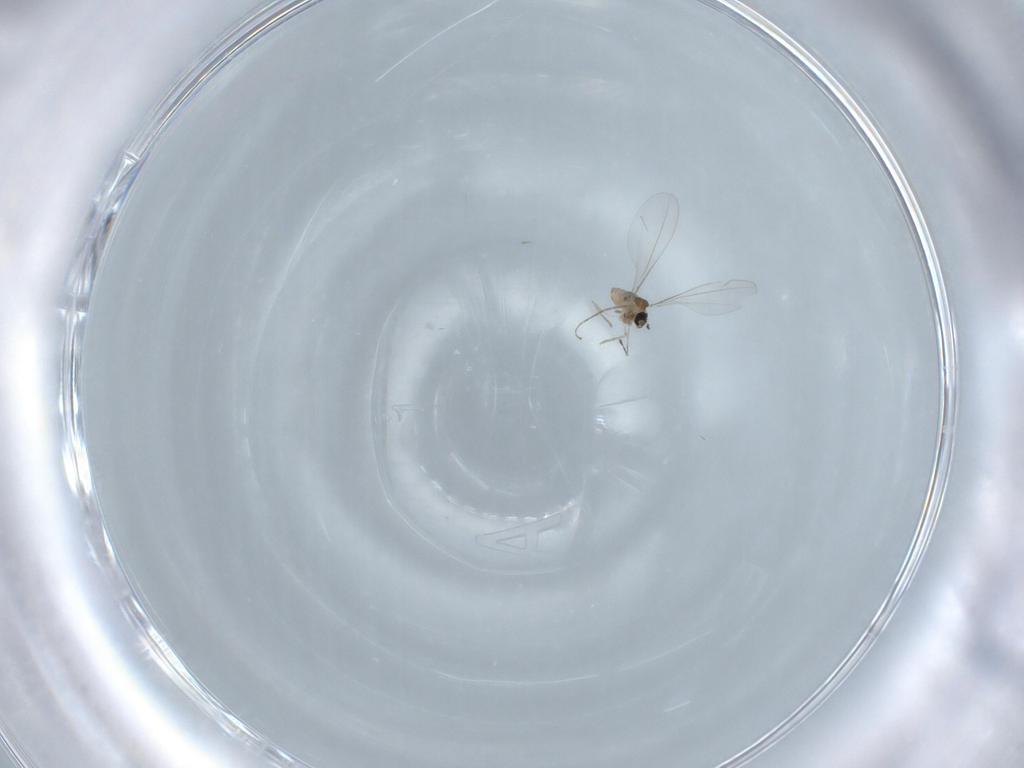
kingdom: Animalia
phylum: Arthropoda
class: Insecta
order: Diptera
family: Cecidomyiidae
